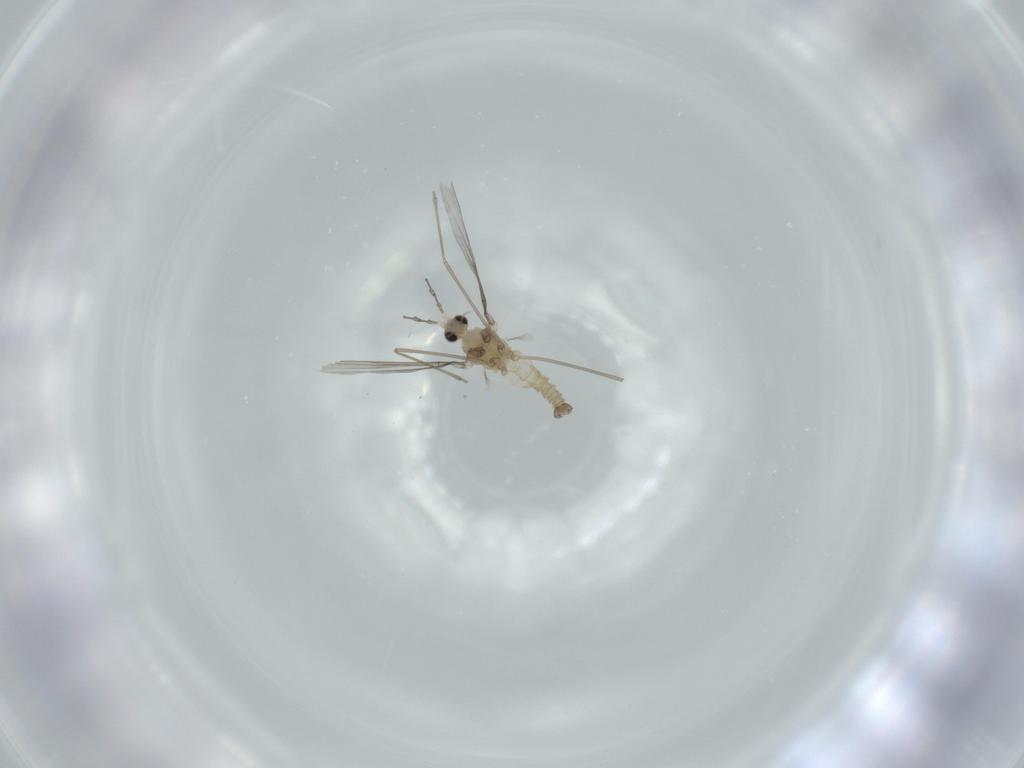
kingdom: Animalia
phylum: Arthropoda
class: Insecta
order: Diptera
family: Cecidomyiidae
